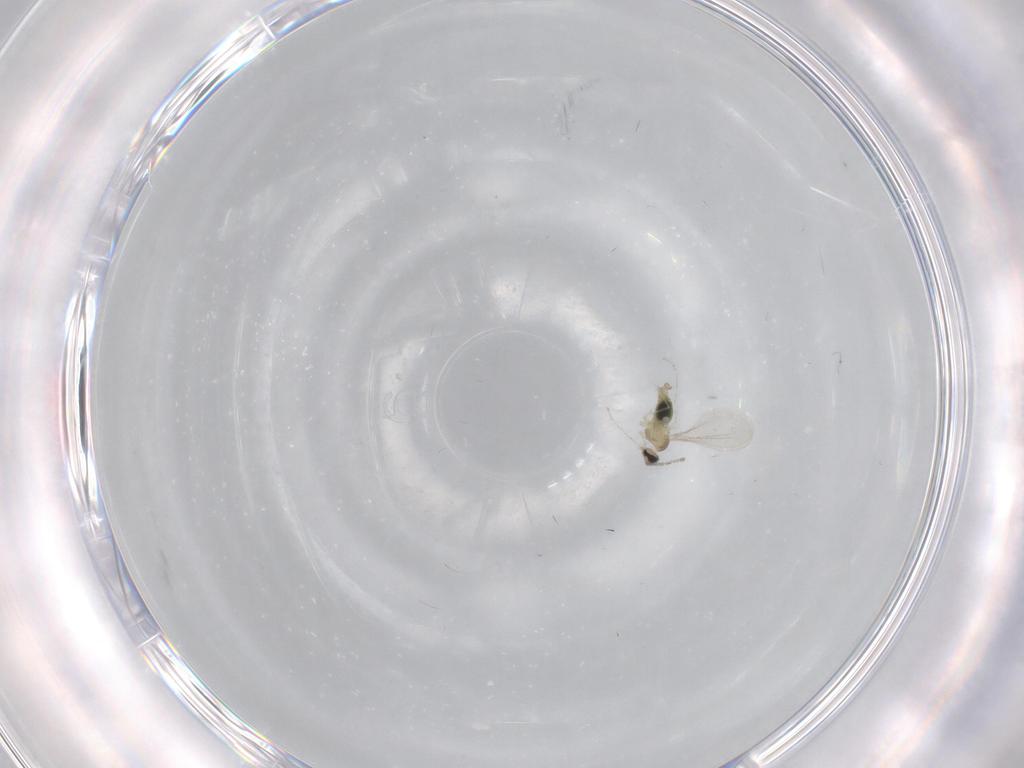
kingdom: Animalia
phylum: Arthropoda
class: Insecta
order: Diptera
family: Cecidomyiidae
